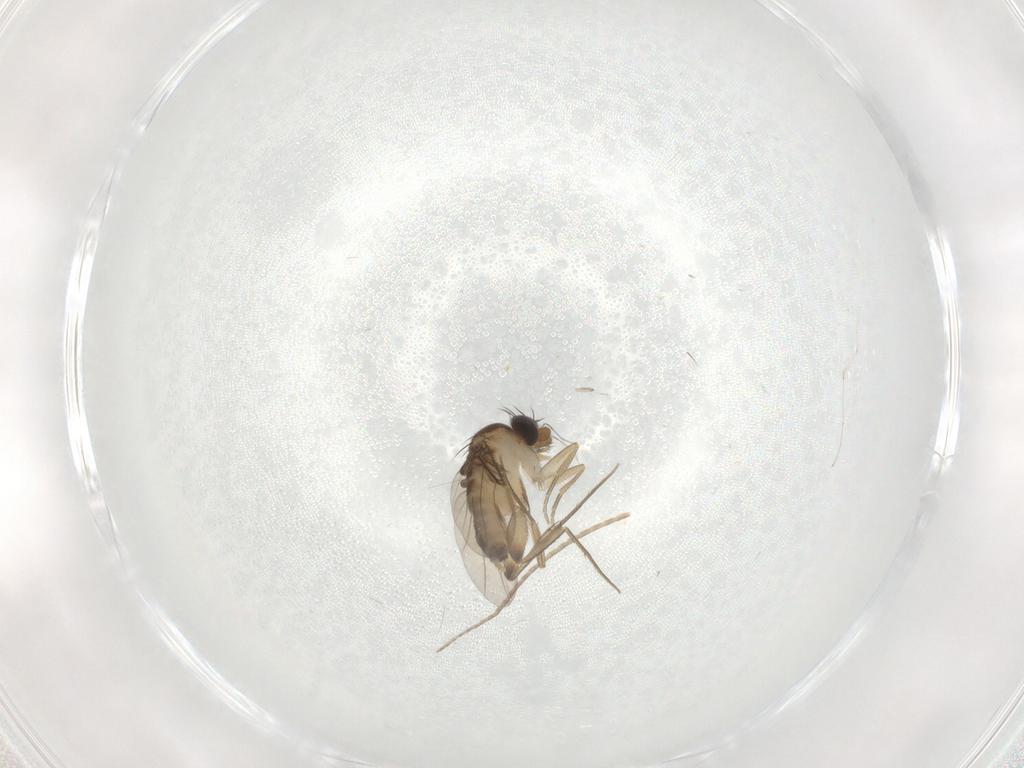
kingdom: Animalia
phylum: Arthropoda
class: Insecta
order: Diptera
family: Phoridae
